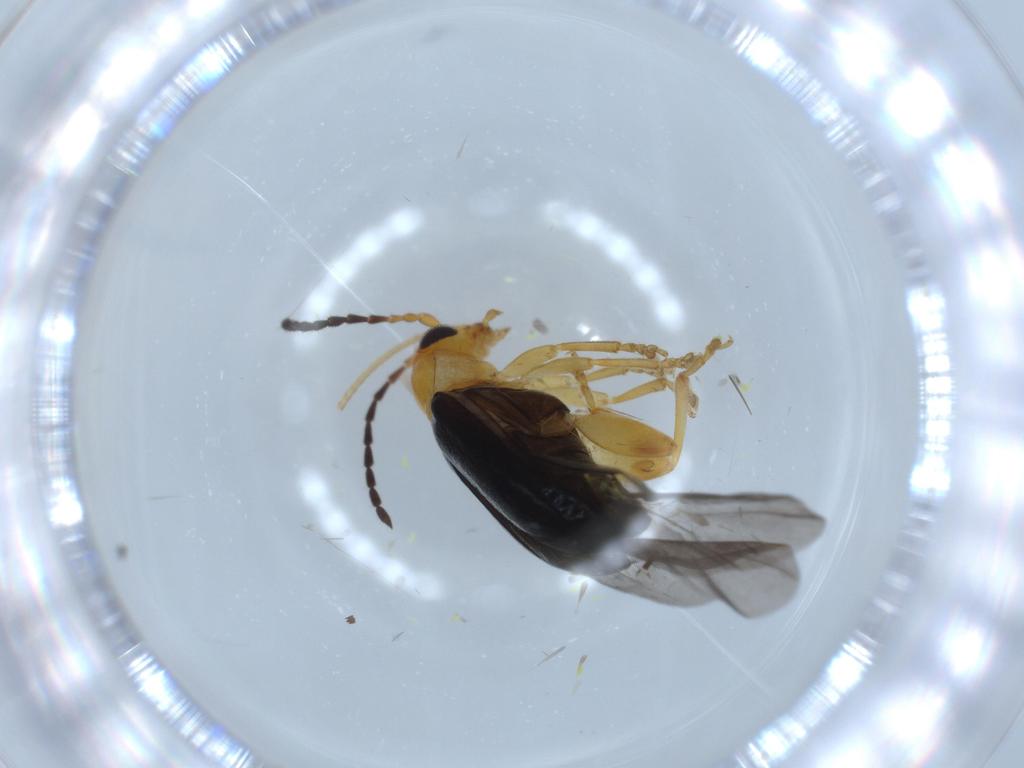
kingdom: Animalia
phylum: Arthropoda
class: Insecta
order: Coleoptera
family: Chrysomelidae
